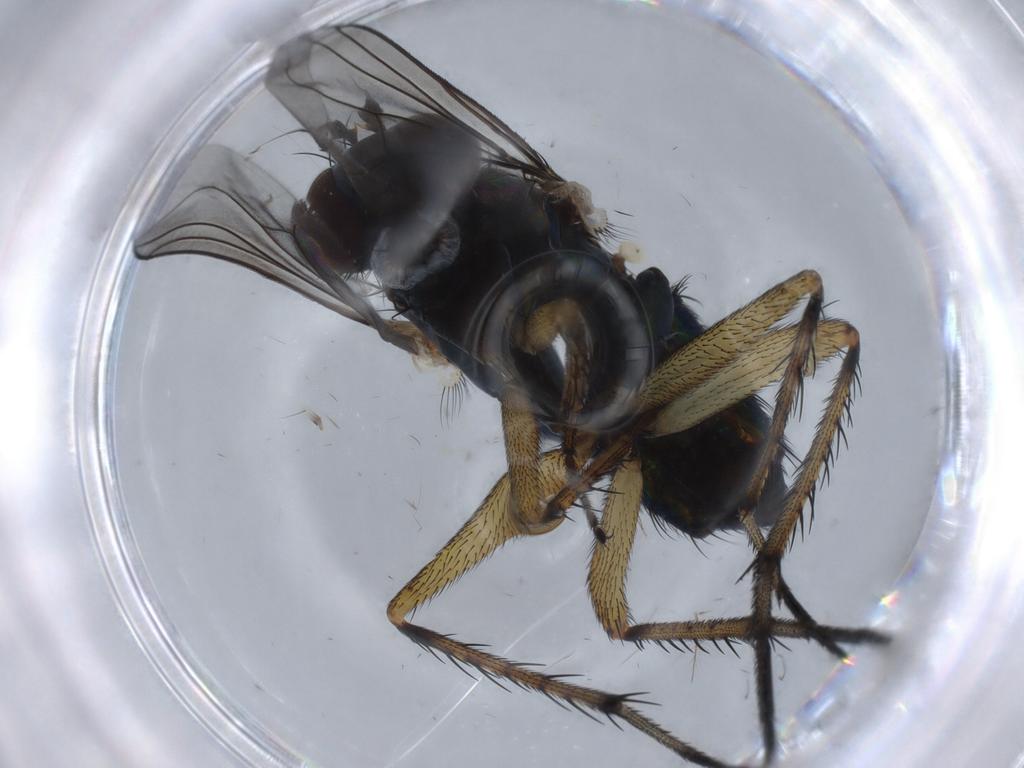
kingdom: Animalia
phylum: Arthropoda
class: Insecta
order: Diptera
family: Dolichopodidae
